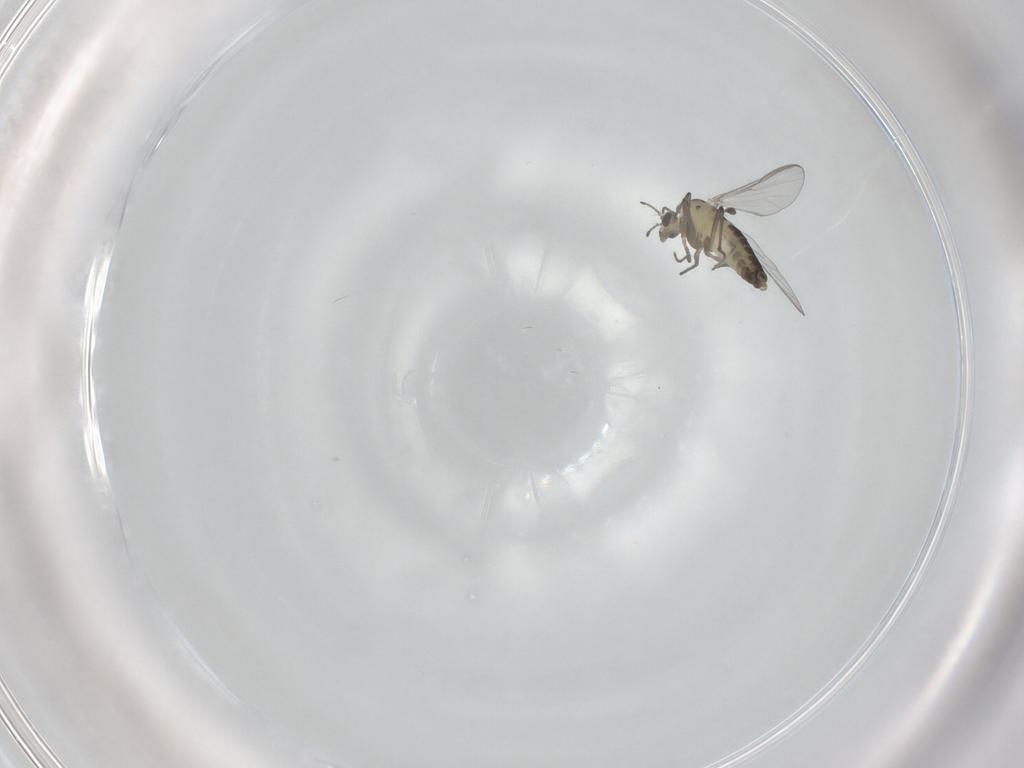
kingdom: Animalia
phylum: Arthropoda
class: Insecta
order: Diptera
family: Chironomidae
